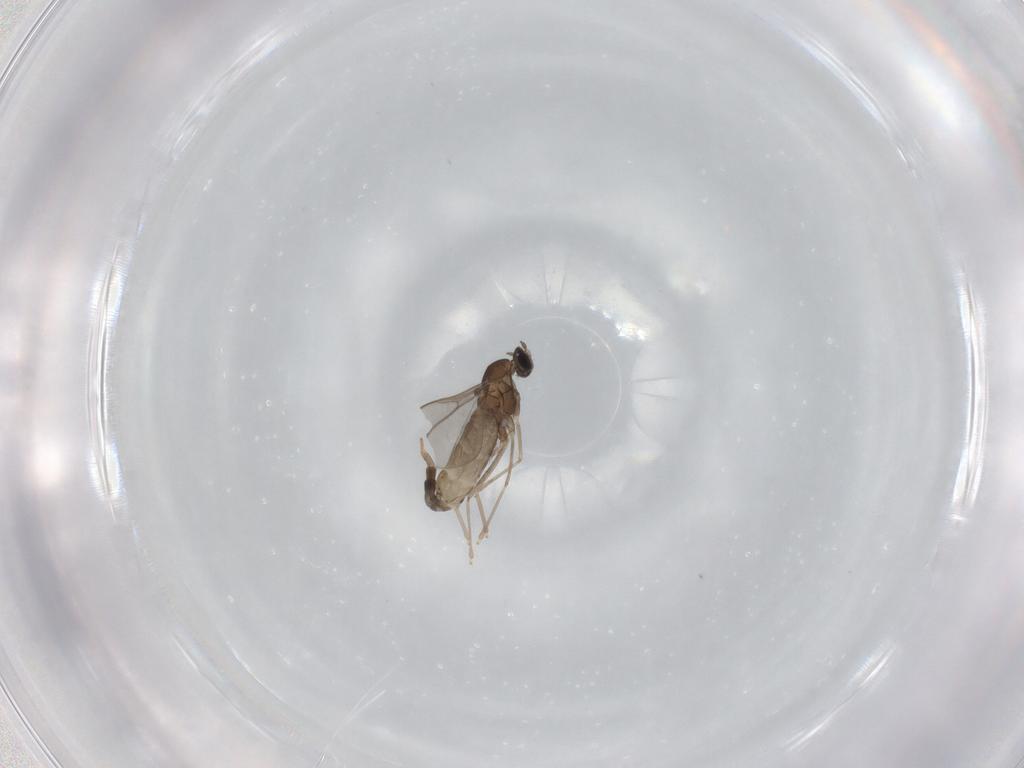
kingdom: Animalia
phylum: Arthropoda
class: Insecta
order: Diptera
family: Cecidomyiidae
